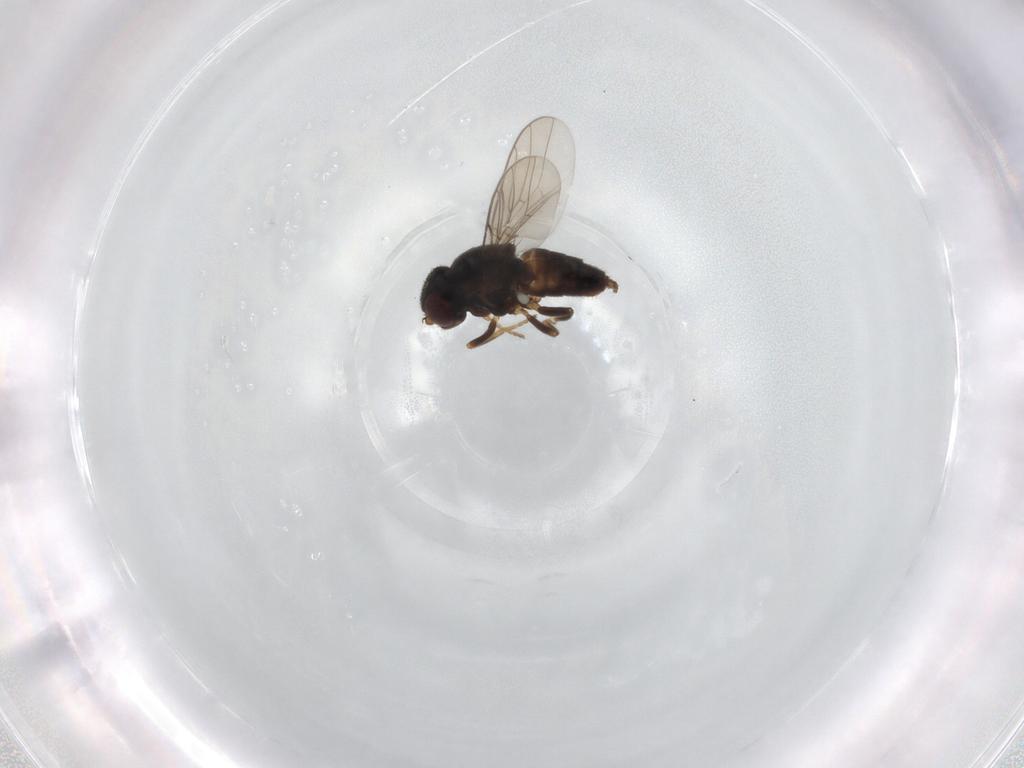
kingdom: Animalia
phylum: Arthropoda
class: Insecta
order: Diptera
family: Chloropidae
